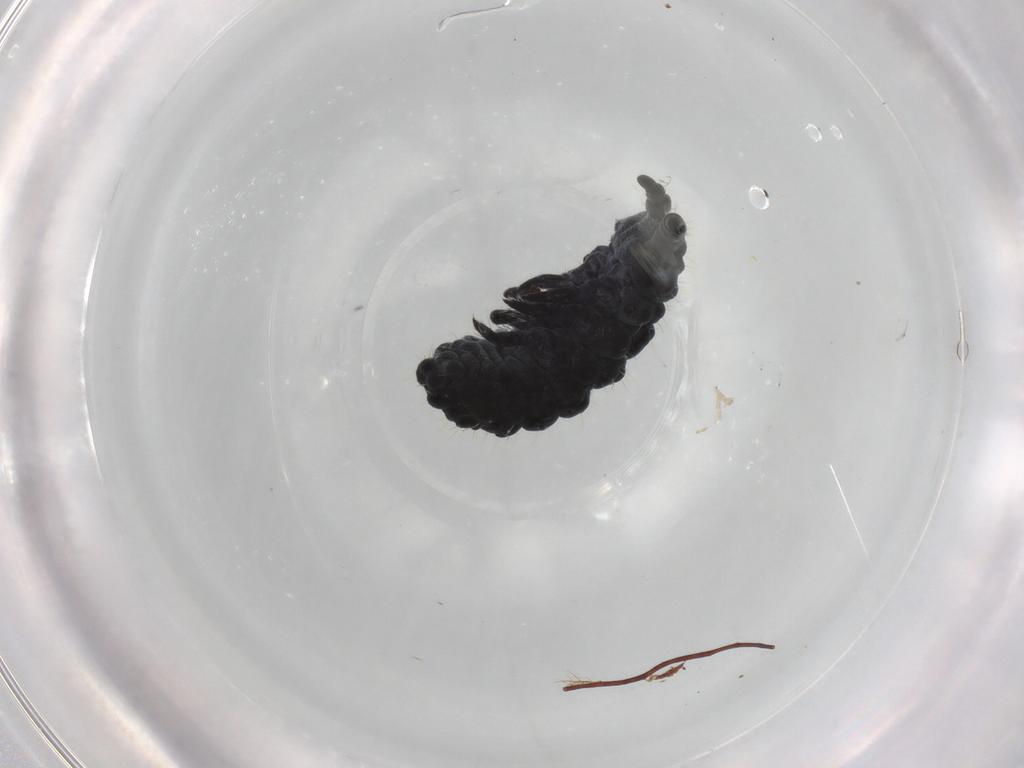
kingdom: Animalia
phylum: Arthropoda
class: Collembola
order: Poduromorpha
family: Neanuridae
